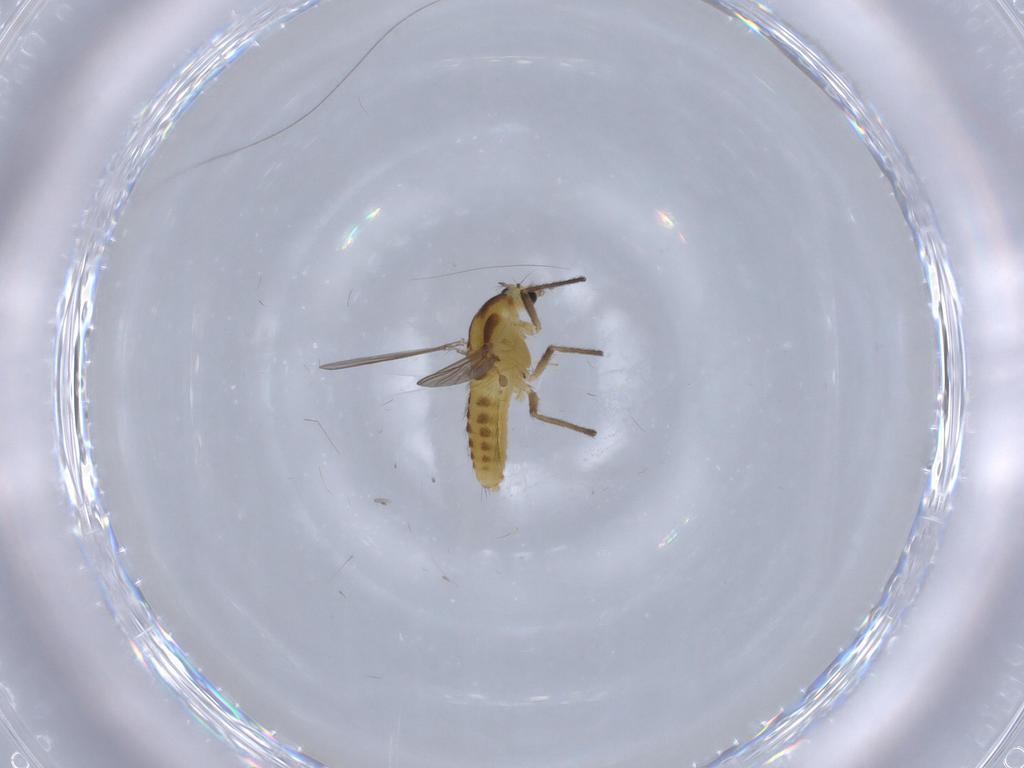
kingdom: Animalia
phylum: Arthropoda
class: Insecta
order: Diptera
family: Chironomidae
